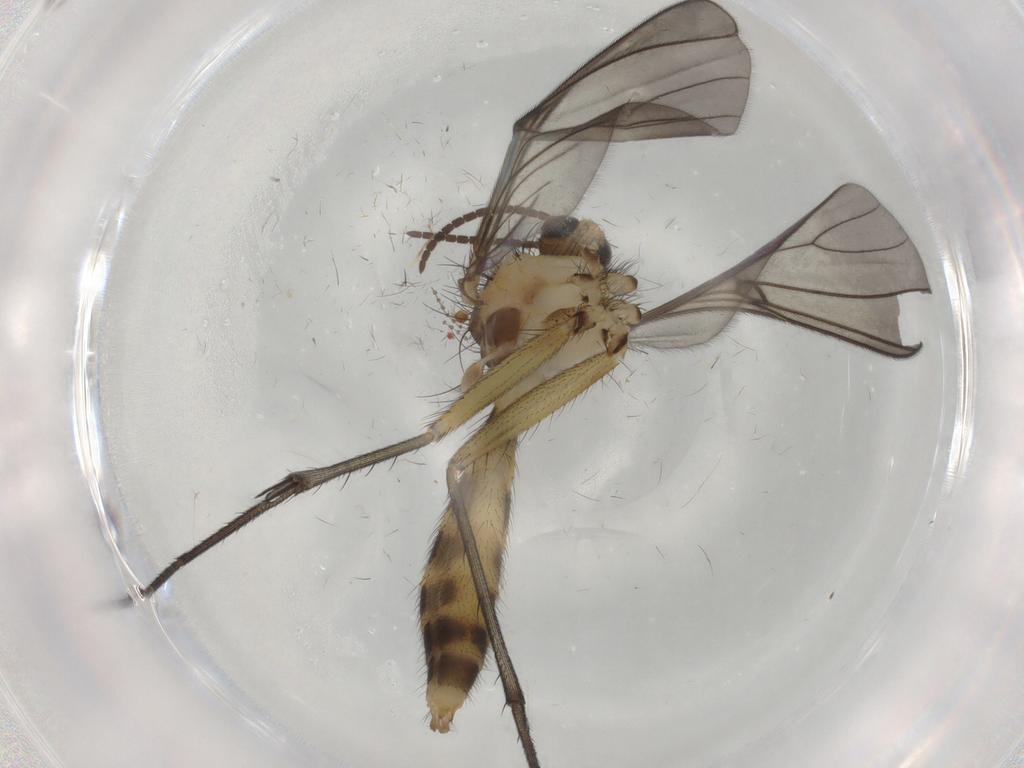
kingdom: Animalia
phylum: Arthropoda
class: Insecta
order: Diptera
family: Mycetophilidae
